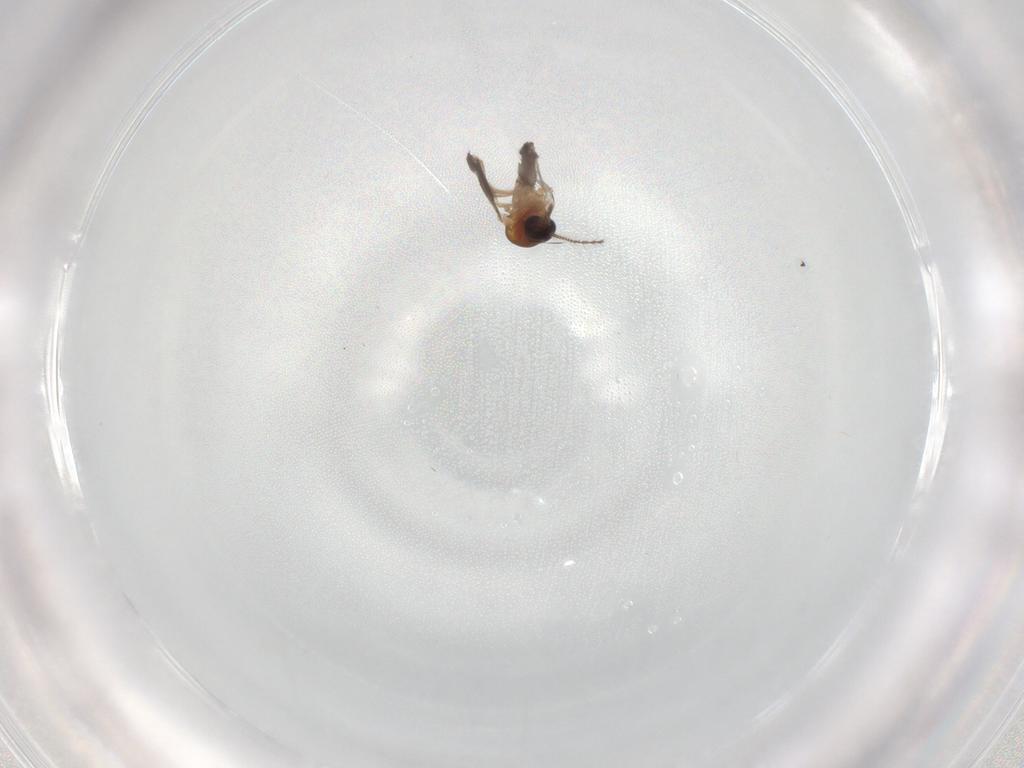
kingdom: Animalia
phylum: Arthropoda
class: Insecta
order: Diptera
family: Ceratopogonidae
